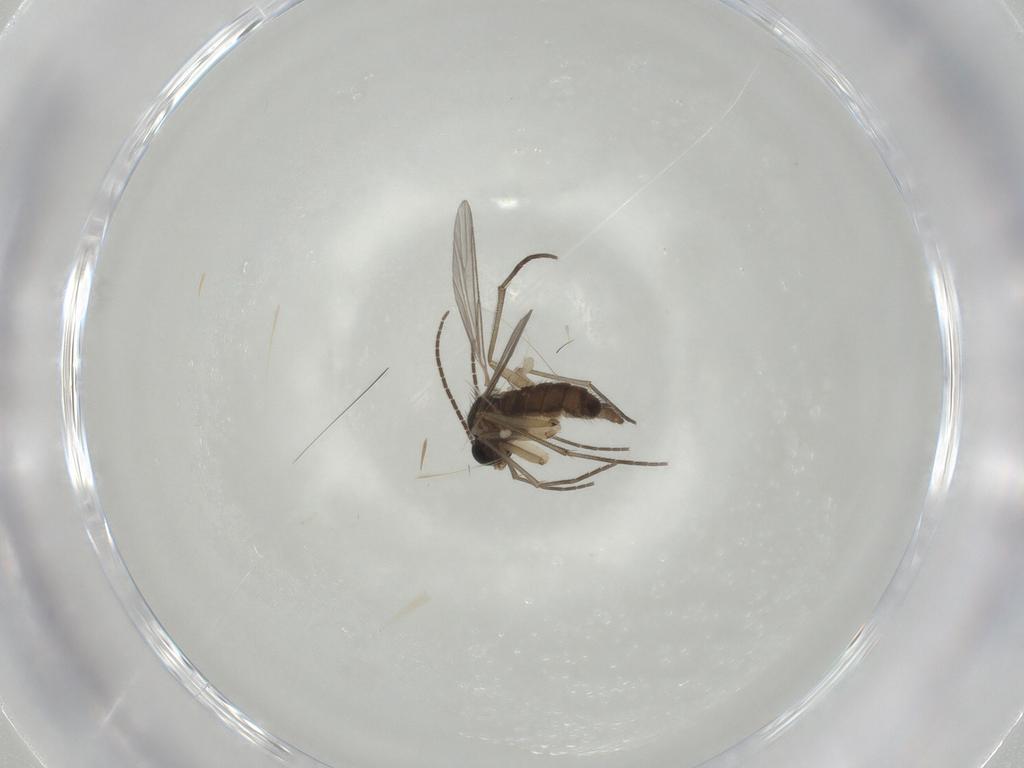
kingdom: Animalia
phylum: Arthropoda
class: Insecta
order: Diptera
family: Sciaridae
